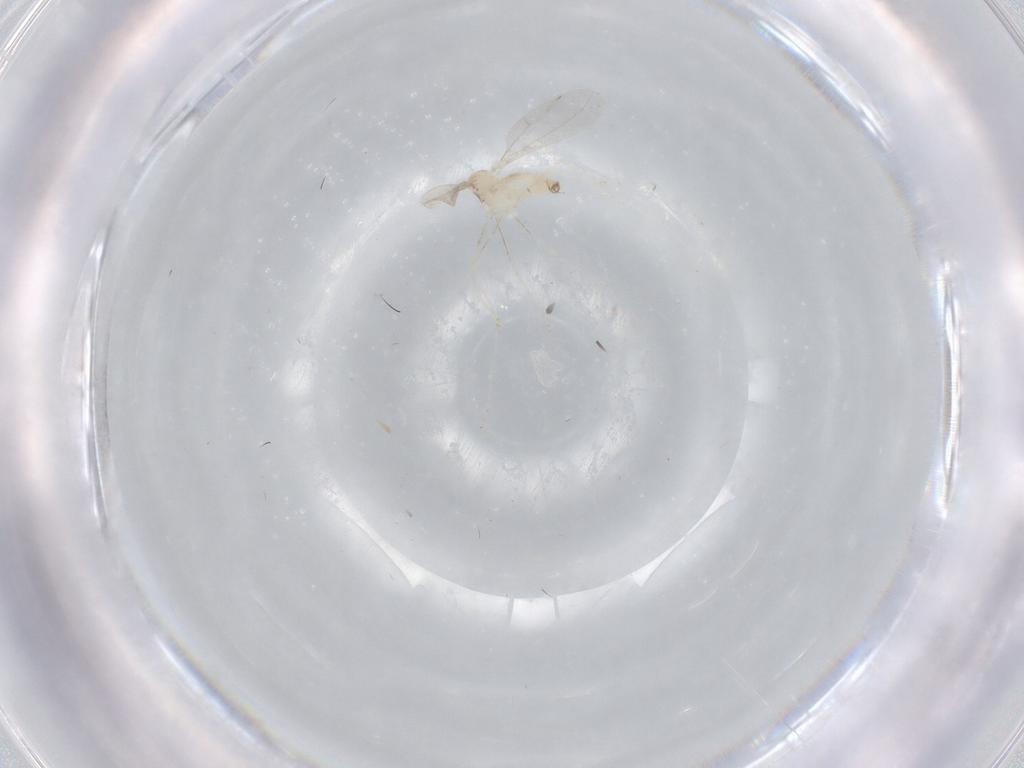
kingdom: Animalia
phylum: Arthropoda
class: Insecta
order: Diptera
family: Cecidomyiidae
